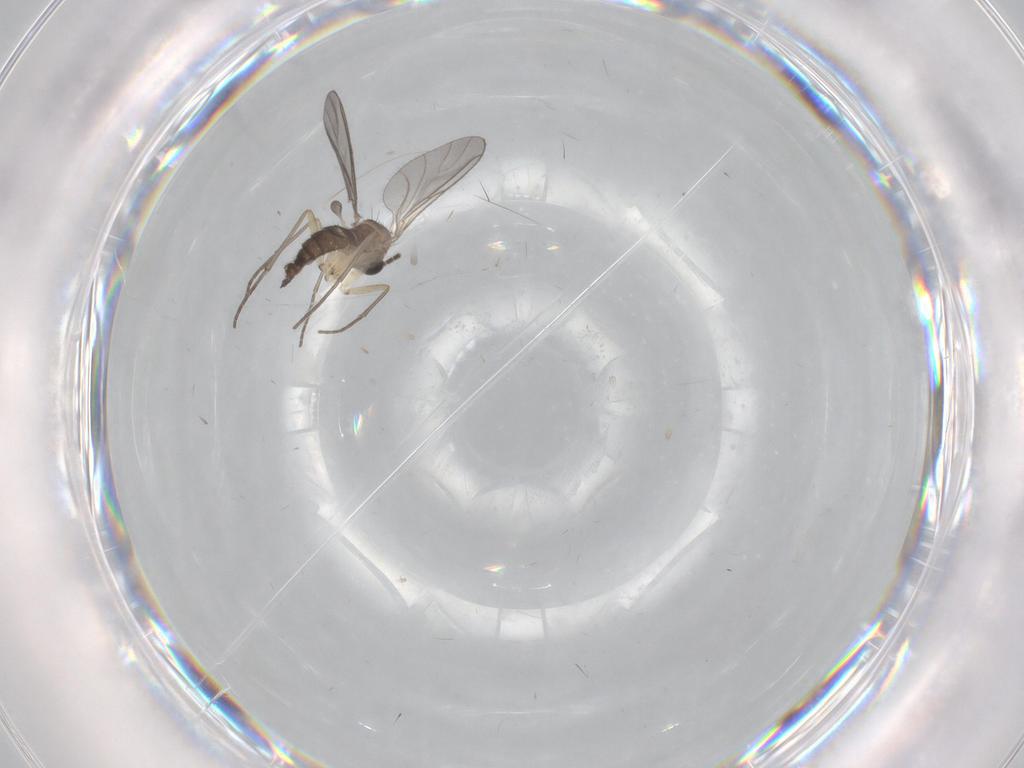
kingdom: Animalia
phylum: Arthropoda
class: Insecta
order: Diptera
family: Sciaridae
